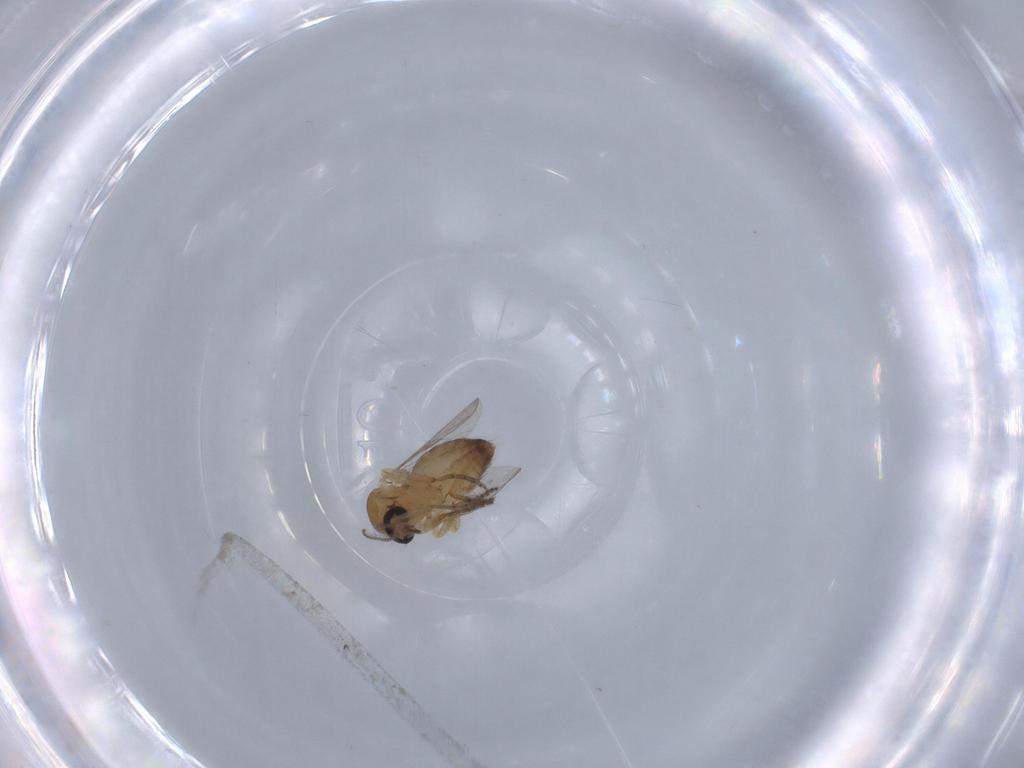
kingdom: Animalia
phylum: Arthropoda
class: Insecta
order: Diptera
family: Ceratopogonidae
